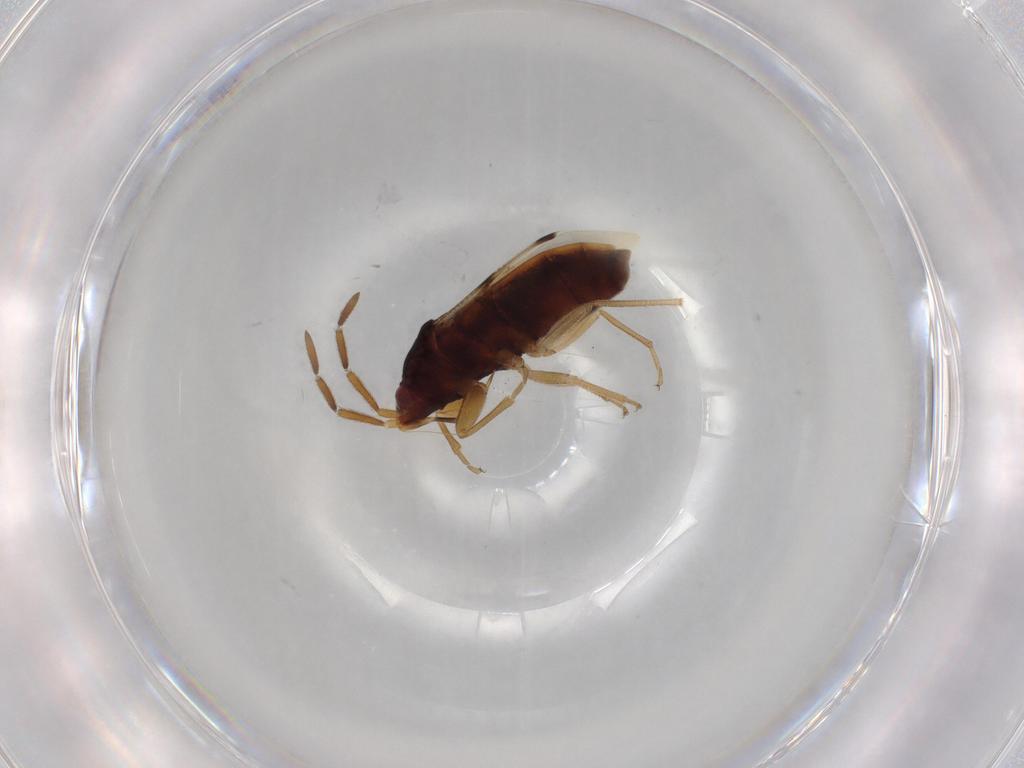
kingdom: Animalia
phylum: Arthropoda
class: Insecta
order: Hemiptera
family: Rhyparochromidae
